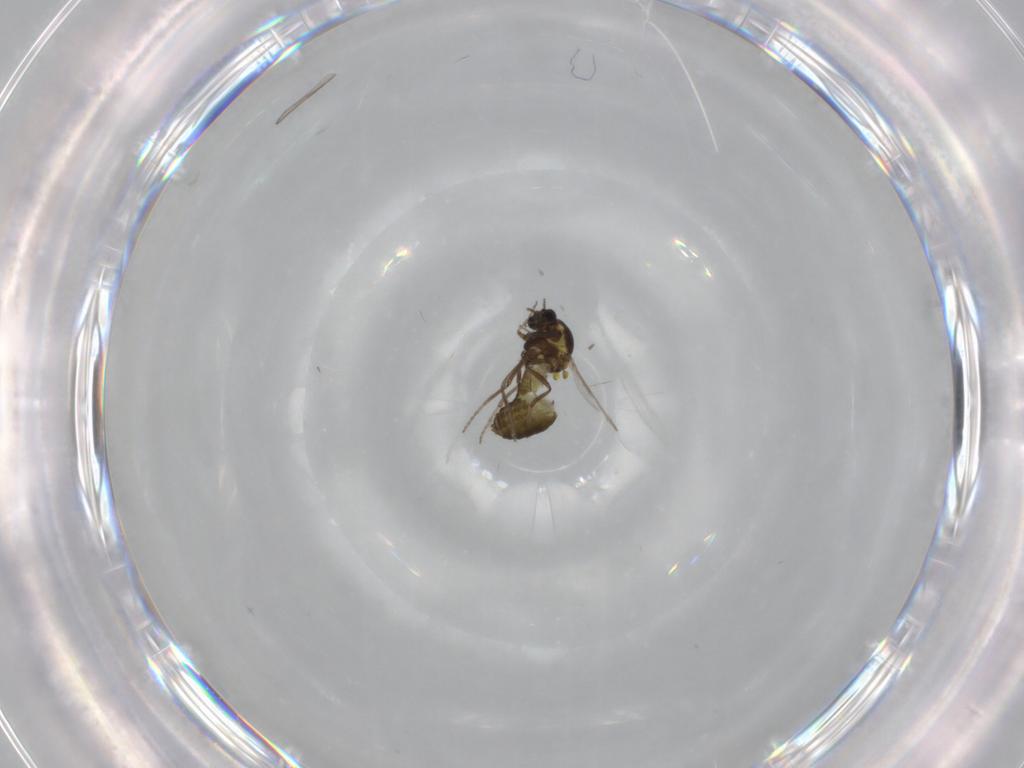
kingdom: Animalia
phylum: Arthropoda
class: Insecta
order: Diptera
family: Ceratopogonidae
